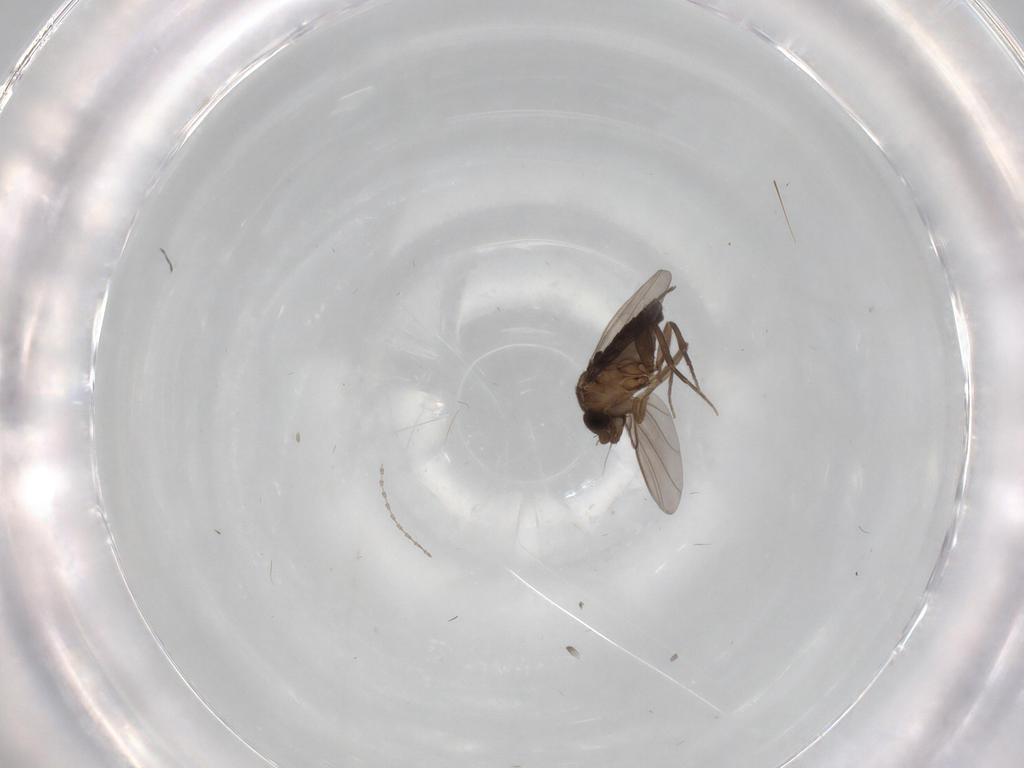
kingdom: Animalia
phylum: Arthropoda
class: Insecta
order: Diptera
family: Phoridae
